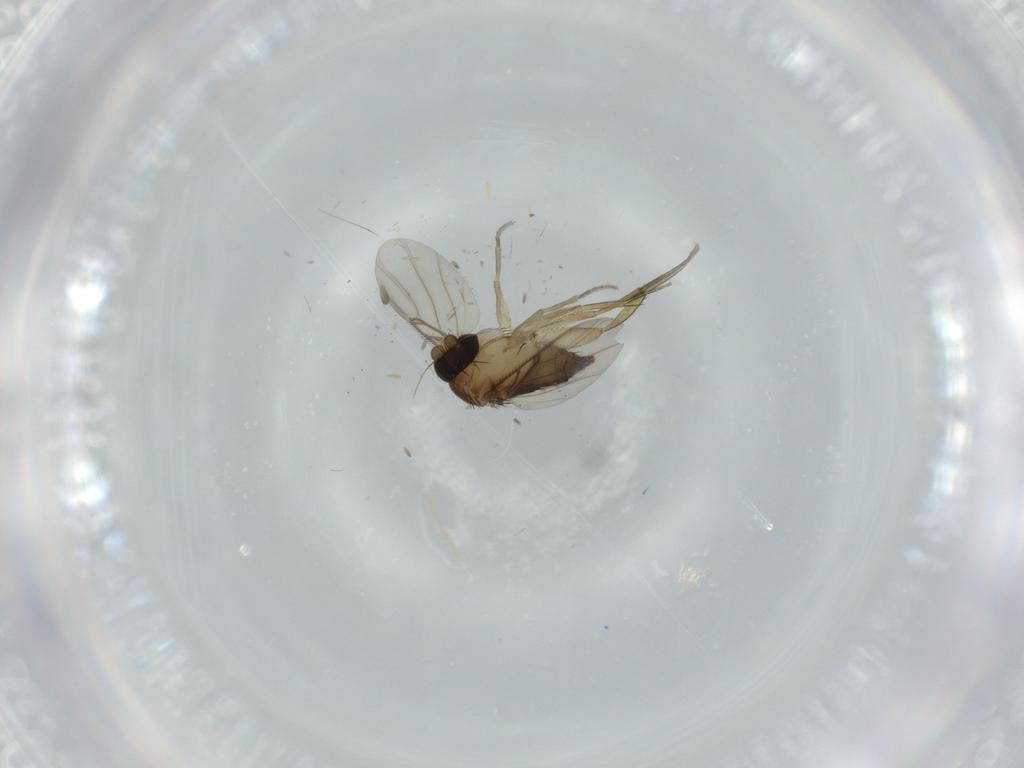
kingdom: Animalia
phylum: Arthropoda
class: Insecta
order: Diptera
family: Phoridae
